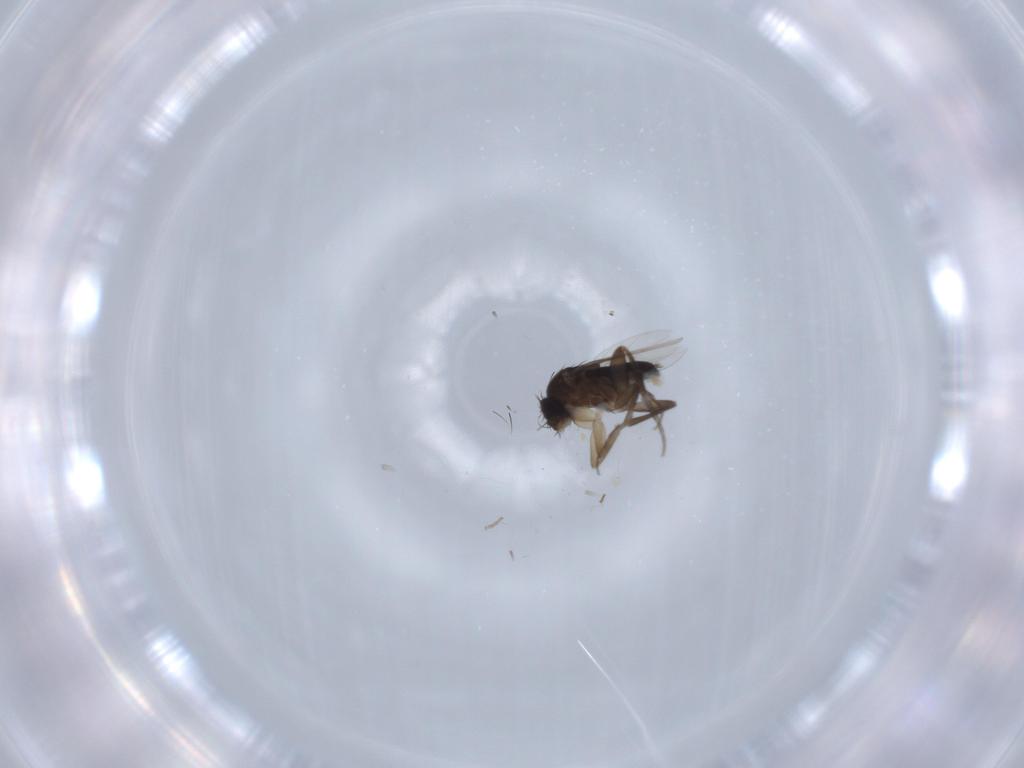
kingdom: Animalia
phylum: Arthropoda
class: Insecta
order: Diptera
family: Phoridae
